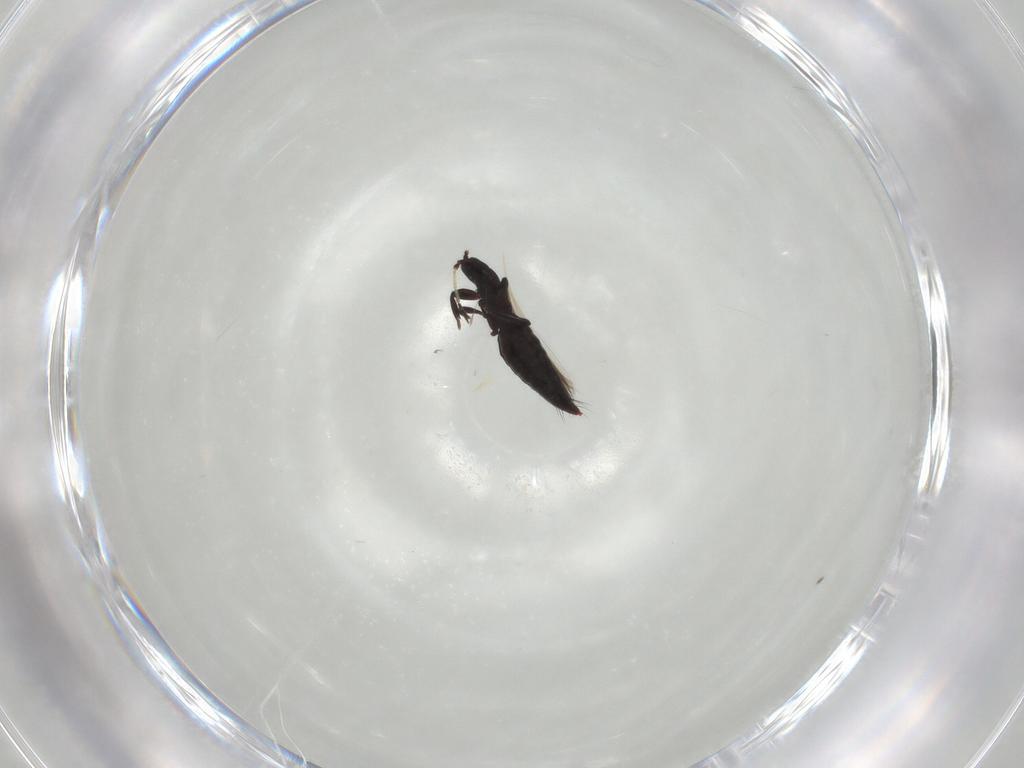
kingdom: Animalia
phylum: Arthropoda
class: Insecta
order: Thysanoptera
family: Aeolothripidae
